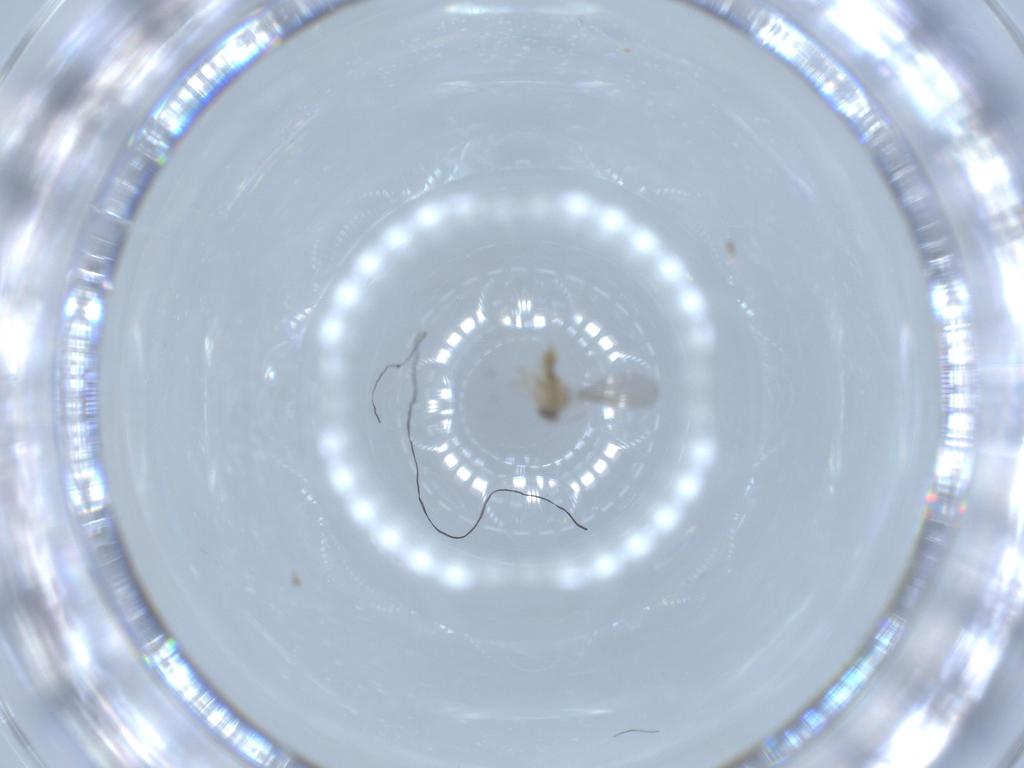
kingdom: Animalia
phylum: Arthropoda
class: Insecta
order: Diptera
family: Cecidomyiidae
